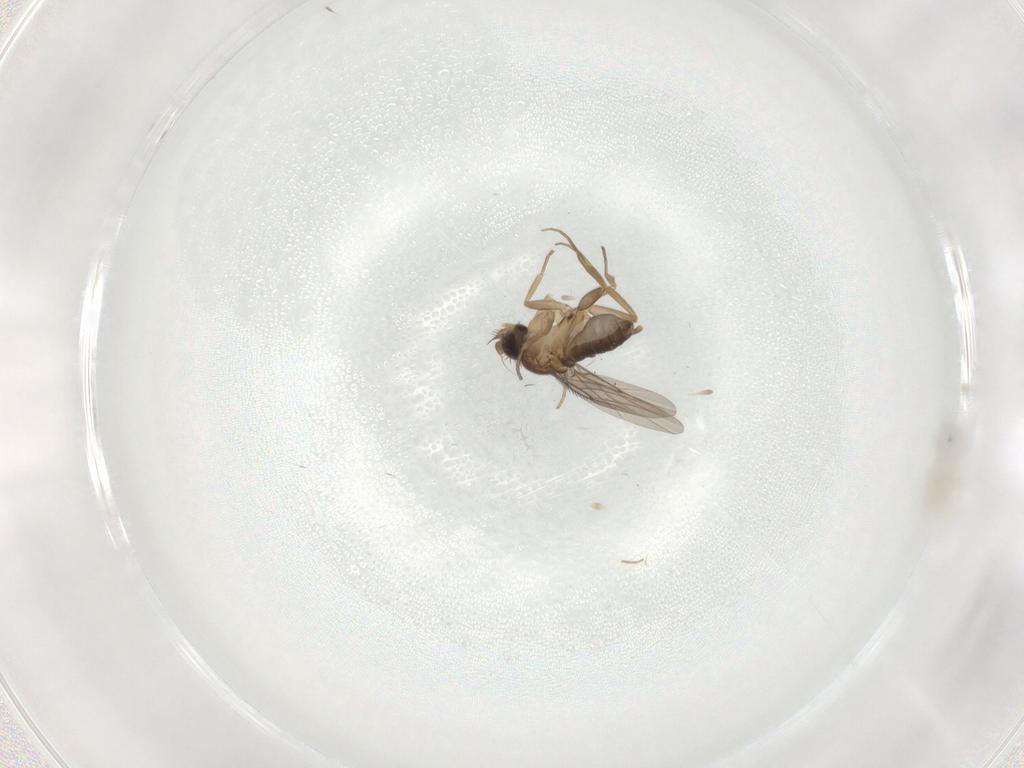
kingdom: Animalia
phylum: Arthropoda
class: Insecta
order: Diptera
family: Phoridae
